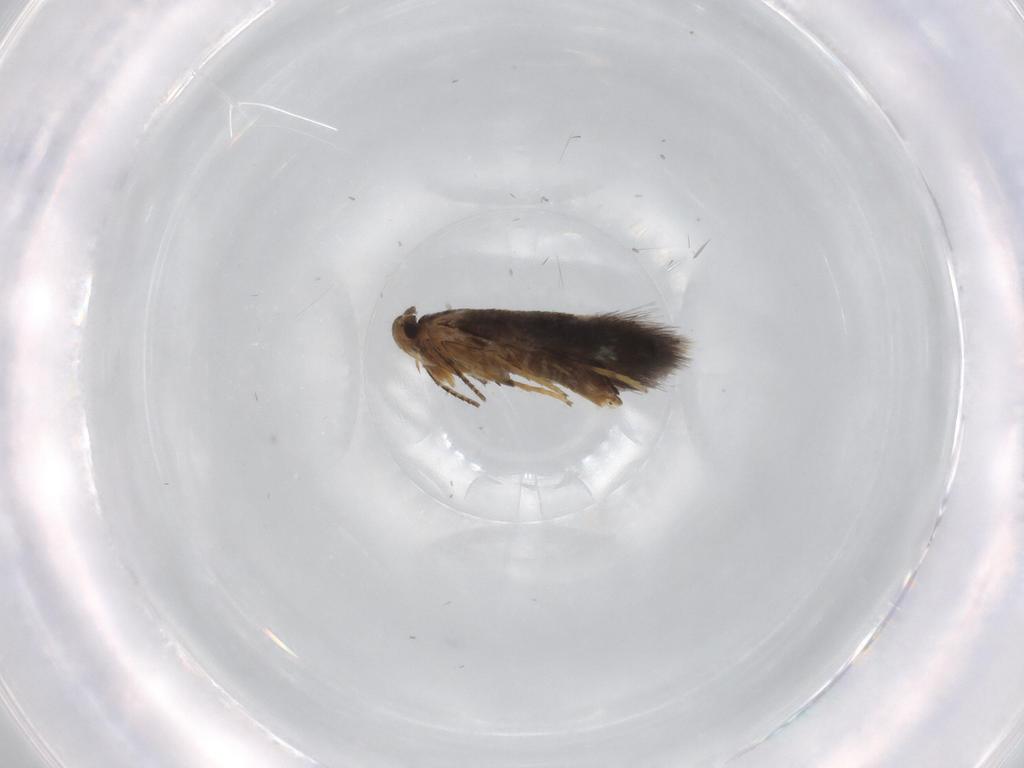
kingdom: Animalia
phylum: Arthropoda
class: Insecta
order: Lepidoptera
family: Heliozelidae
